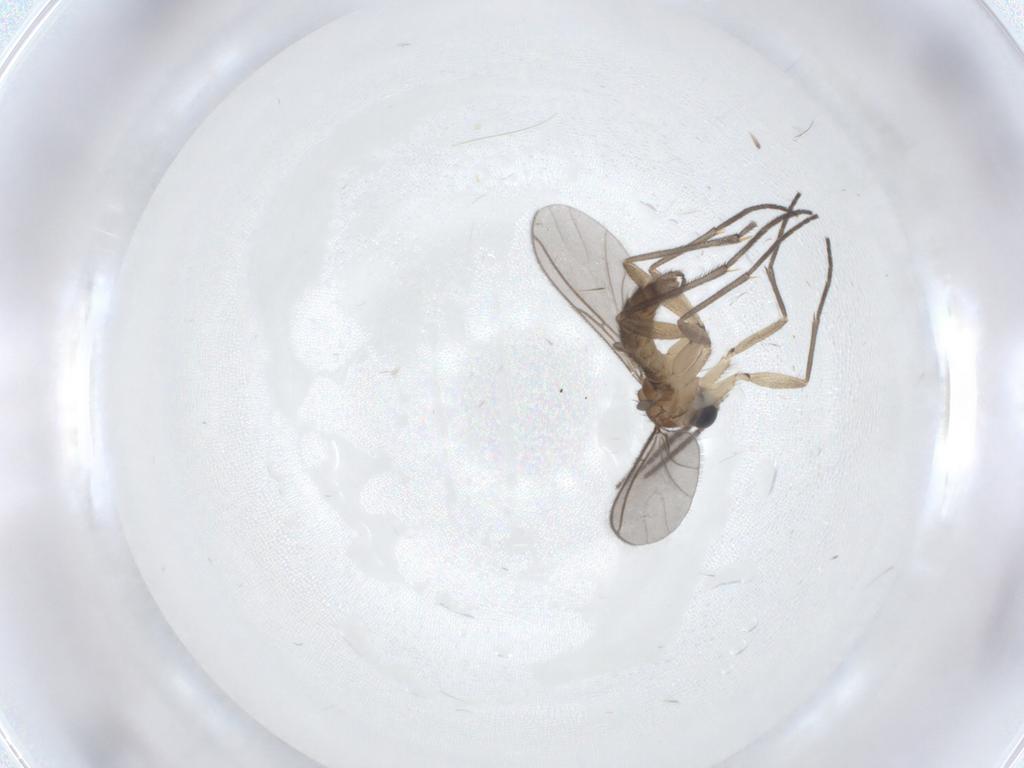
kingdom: Animalia
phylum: Arthropoda
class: Insecta
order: Diptera
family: Sciaridae
